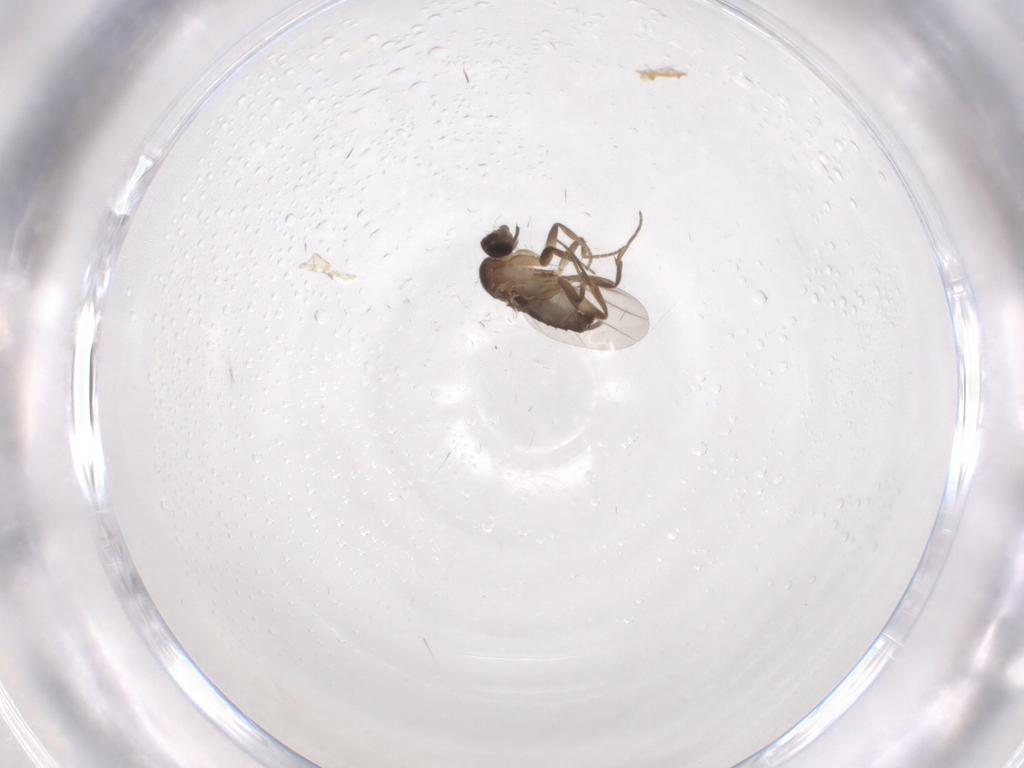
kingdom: Animalia
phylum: Arthropoda
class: Insecta
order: Diptera
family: Phoridae
